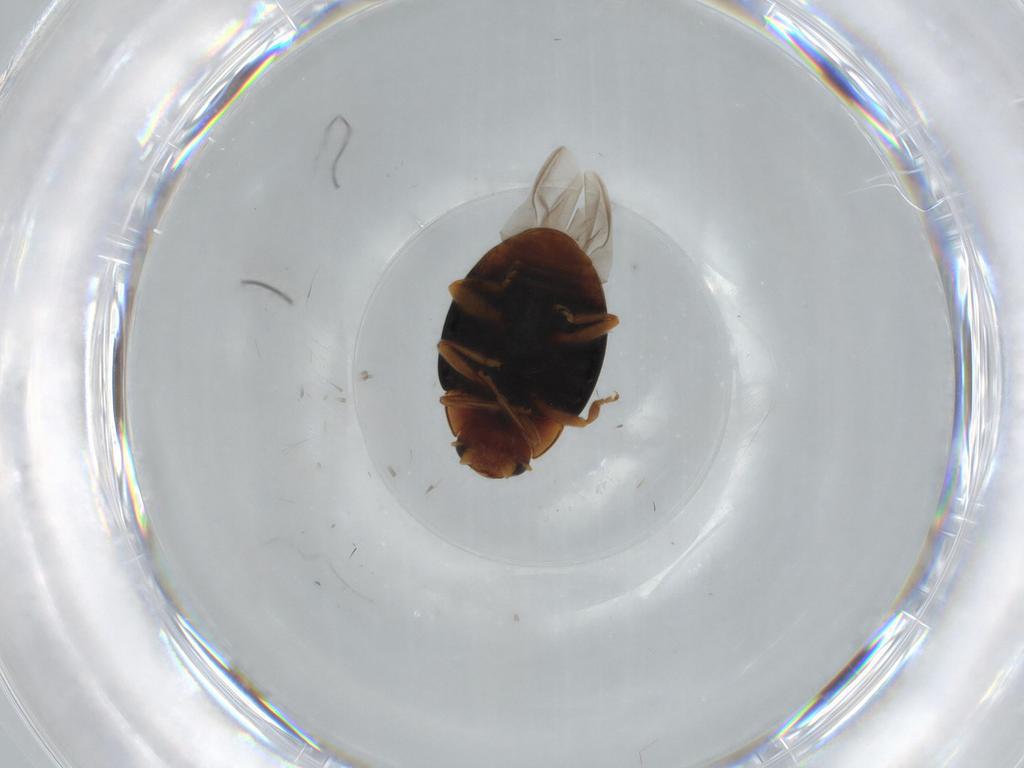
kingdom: Animalia
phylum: Arthropoda
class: Insecta
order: Coleoptera
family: Coccinellidae
